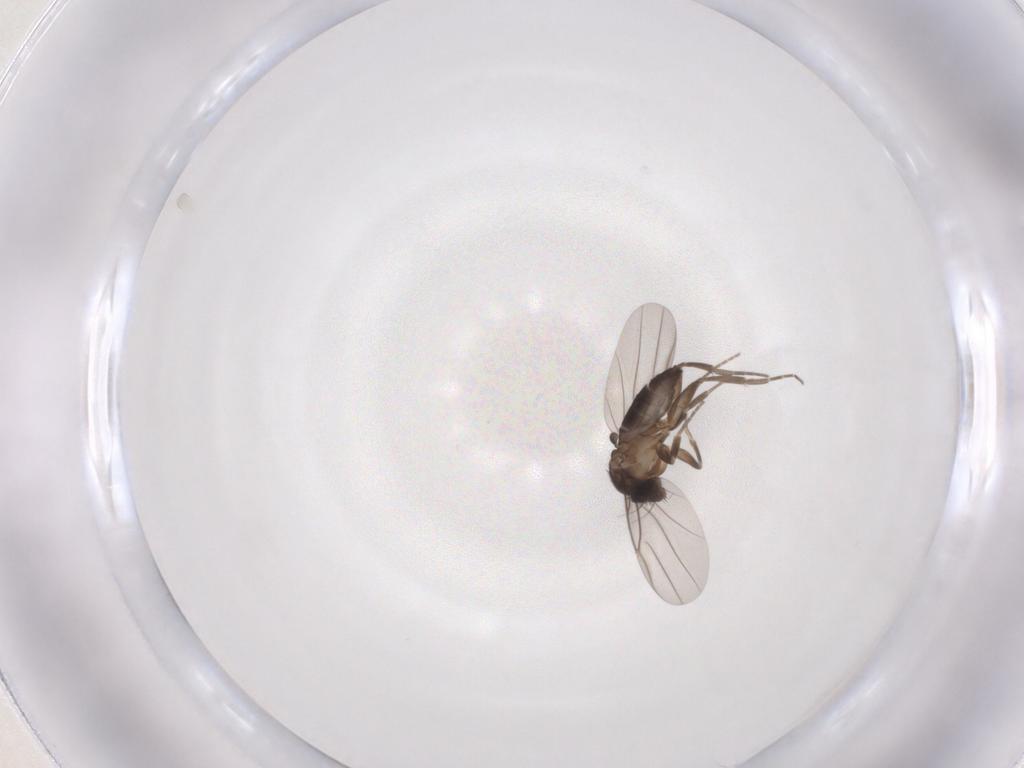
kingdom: Animalia
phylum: Arthropoda
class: Insecta
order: Diptera
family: Phoridae
